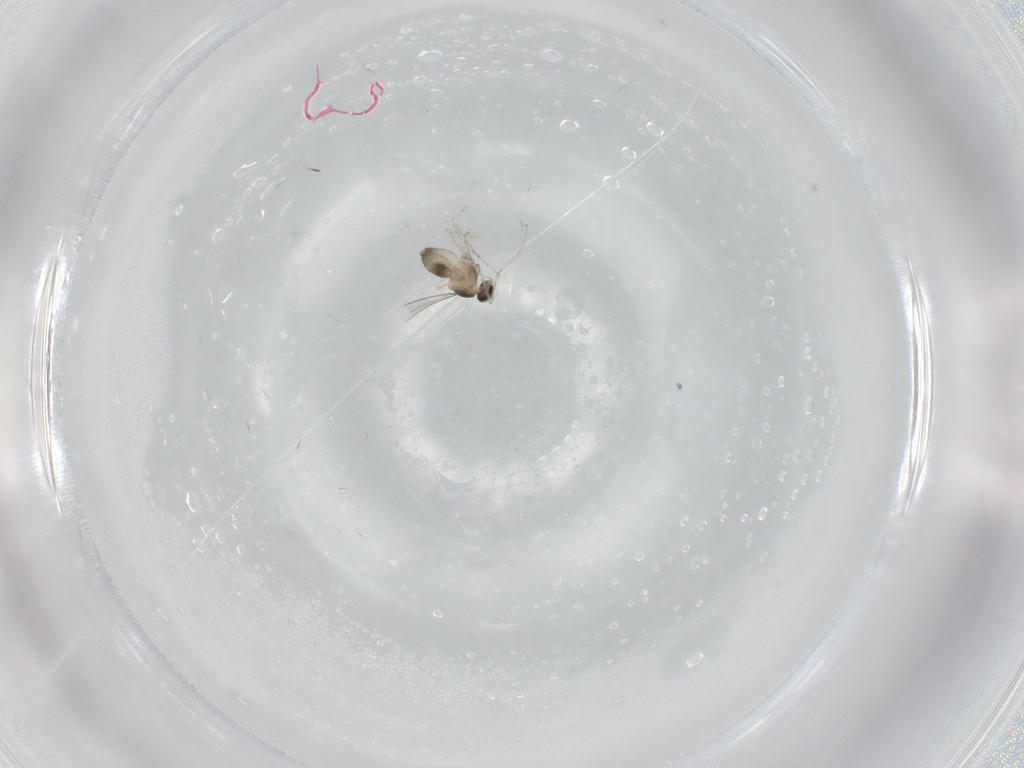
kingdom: Animalia
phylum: Arthropoda
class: Insecta
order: Diptera
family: Cecidomyiidae
